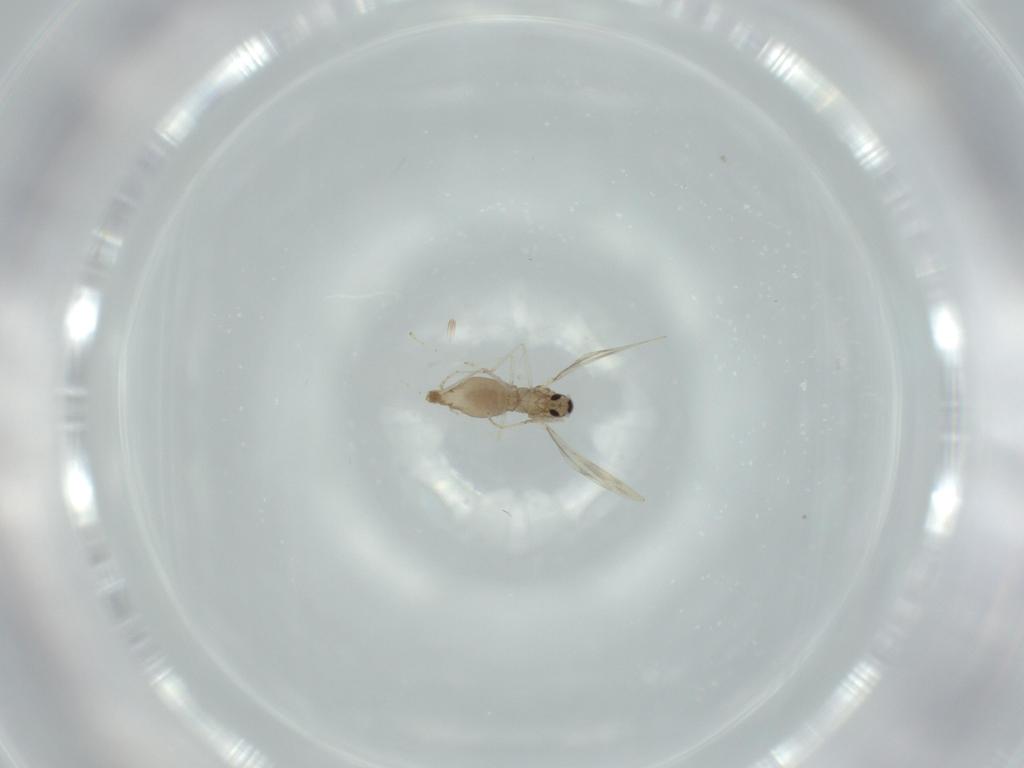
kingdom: Animalia
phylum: Arthropoda
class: Insecta
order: Diptera
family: Cecidomyiidae
